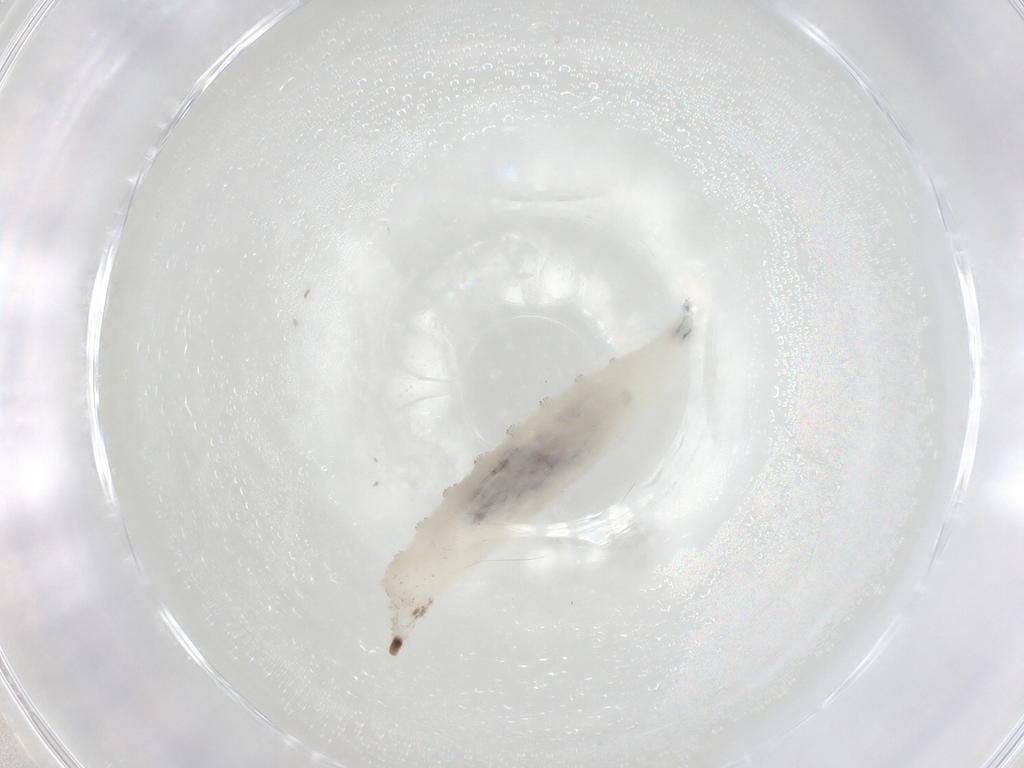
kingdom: Animalia
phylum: Arthropoda
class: Insecta
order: Diptera
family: Drosophilidae
